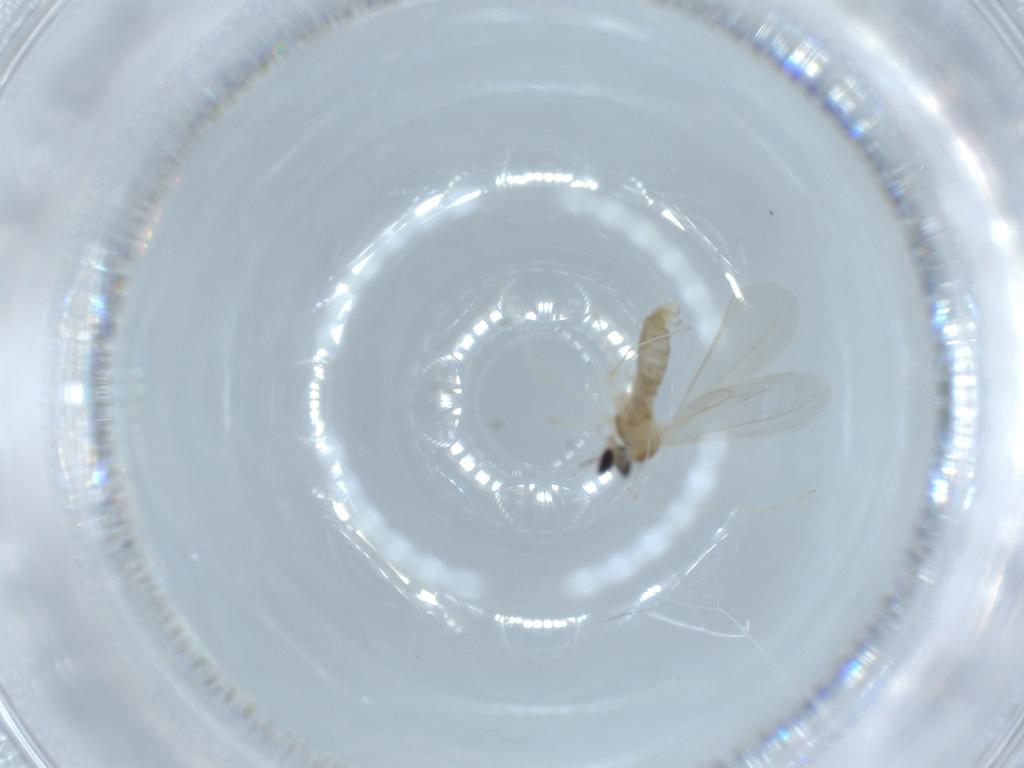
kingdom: Animalia
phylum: Arthropoda
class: Insecta
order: Diptera
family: Cecidomyiidae
